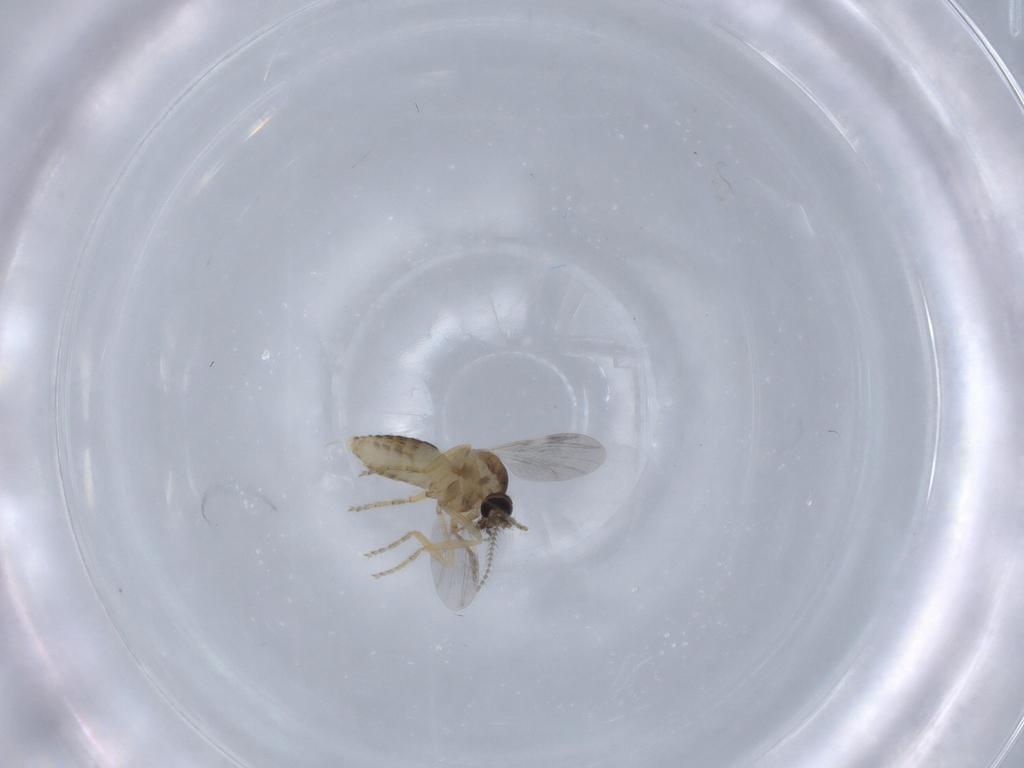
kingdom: Animalia
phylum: Arthropoda
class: Insecta
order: Diptera
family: Ceratopogonidae
